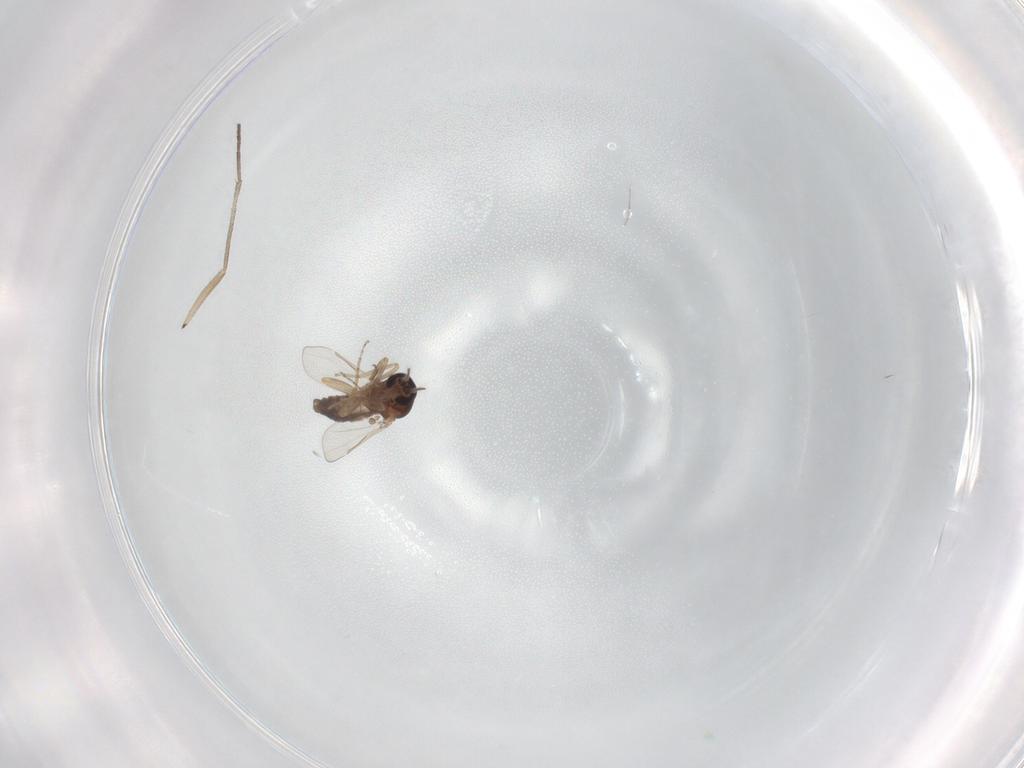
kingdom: Animalia
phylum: Arthropoda
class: Insecta
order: Diptera
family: Sciaridae
